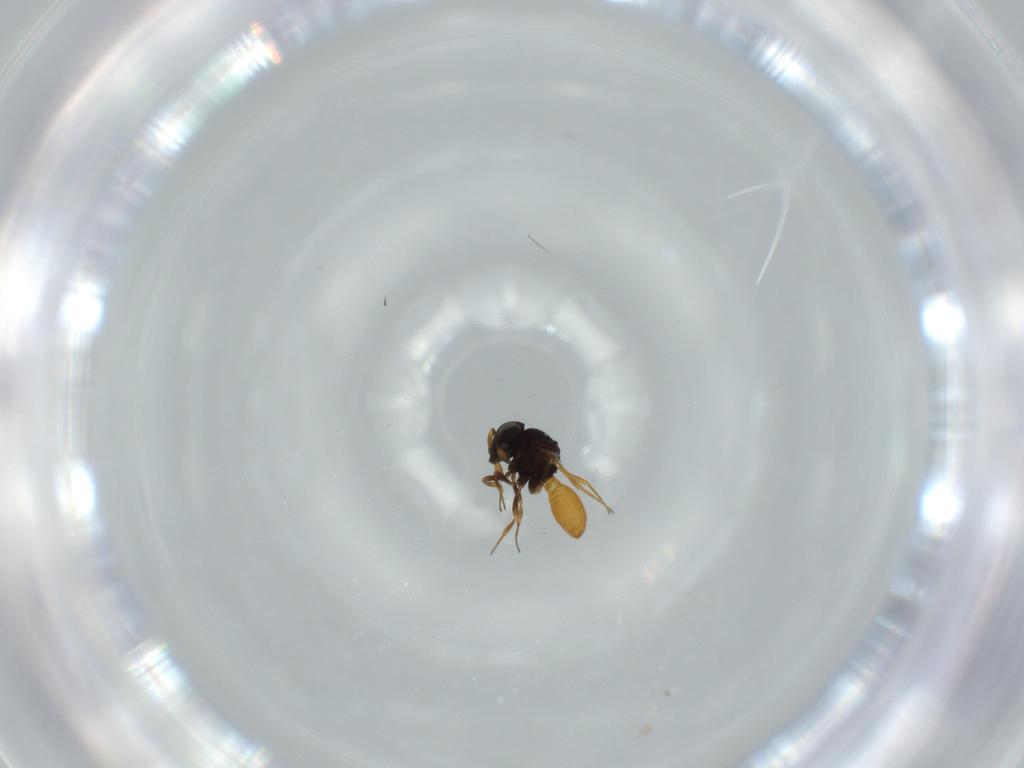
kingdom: Animalia
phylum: Arthropoda
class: Insecta
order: Hymenoptera
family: Scelionidae
